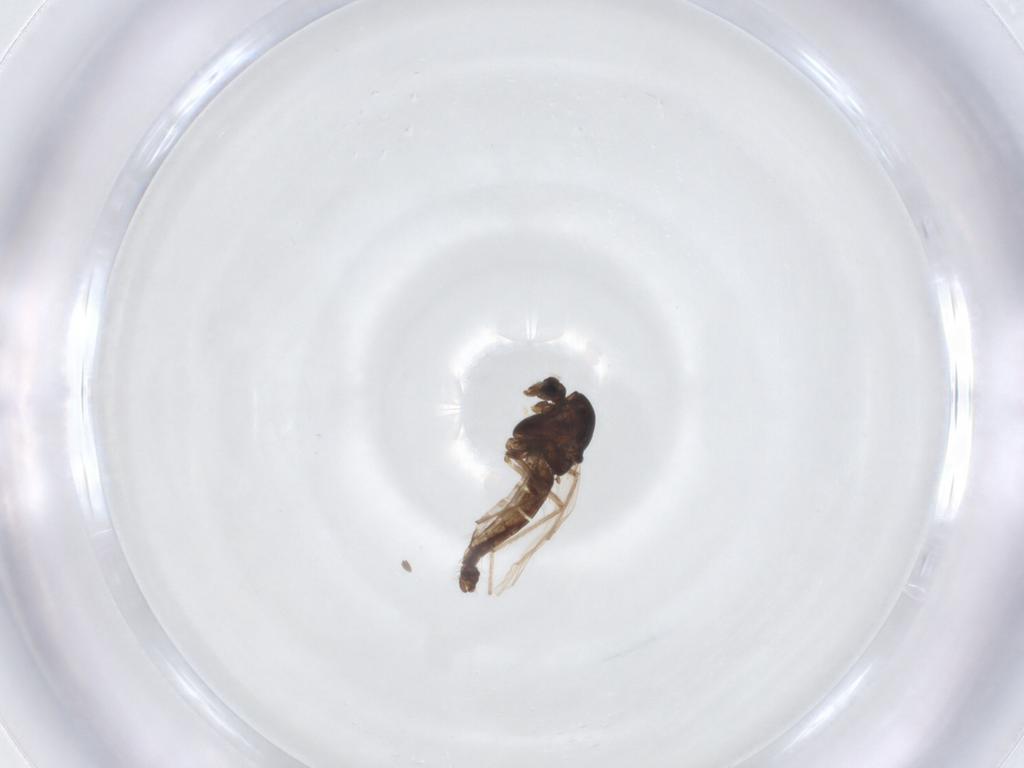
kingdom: Animalia
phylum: Arthropoda
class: Insecta
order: Diptera
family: Chironomidae
